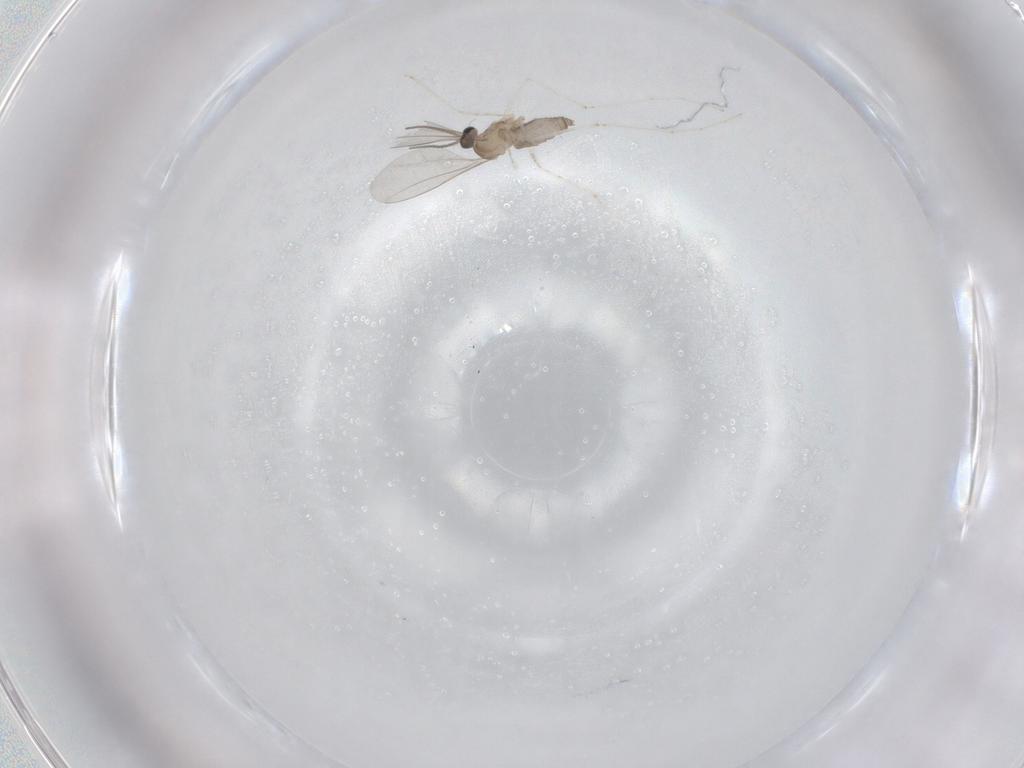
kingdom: Animalia
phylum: Arthropoda
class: Insecta
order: Diptera
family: Cecidomyiidae
